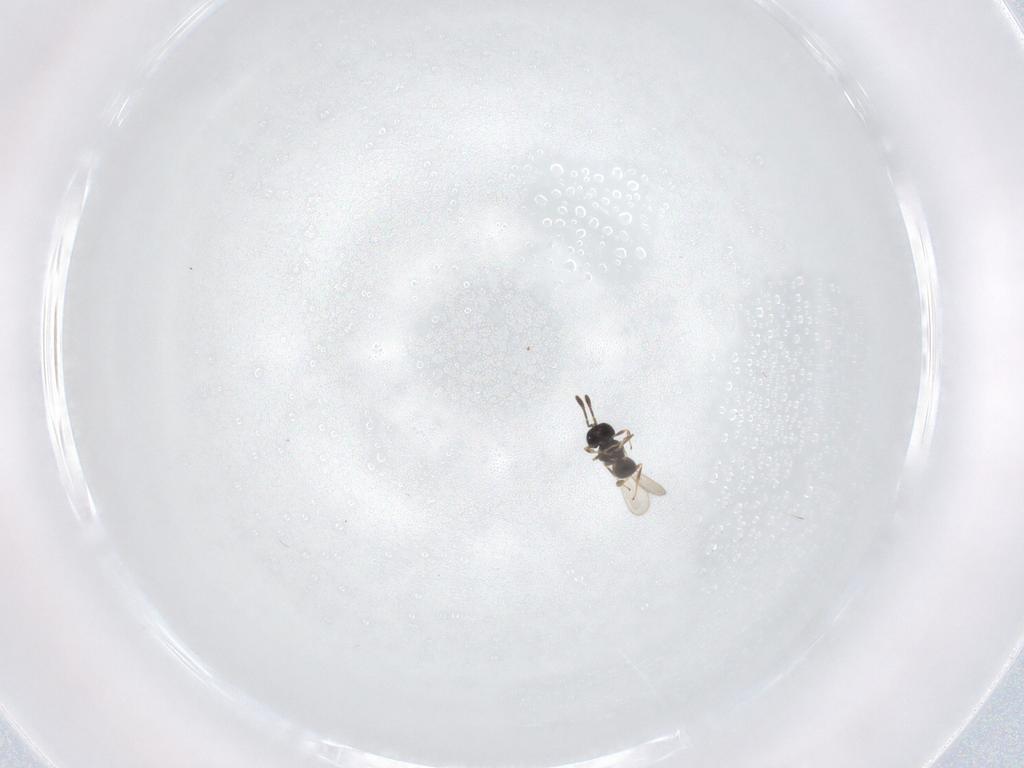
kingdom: Animalia
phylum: Arthropoda
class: Insecta
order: Hymenoptera
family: Scelionidae
